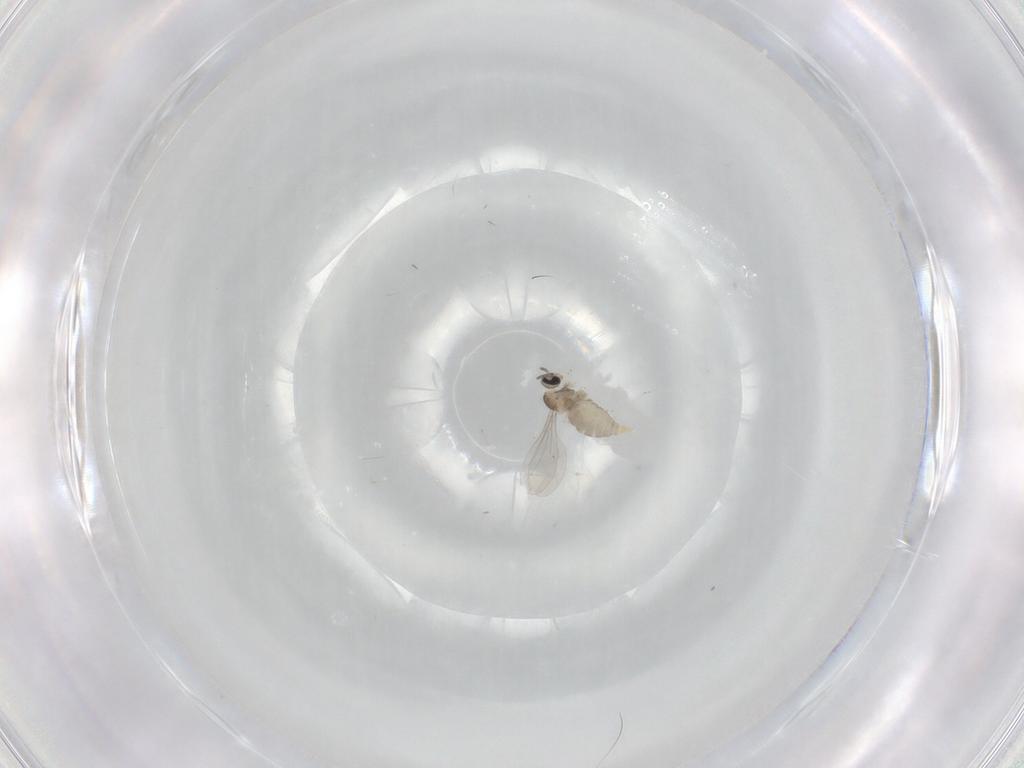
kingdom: Animalia
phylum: Arthropoda
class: Insecta
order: Diptera
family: Cecidomyiidae
